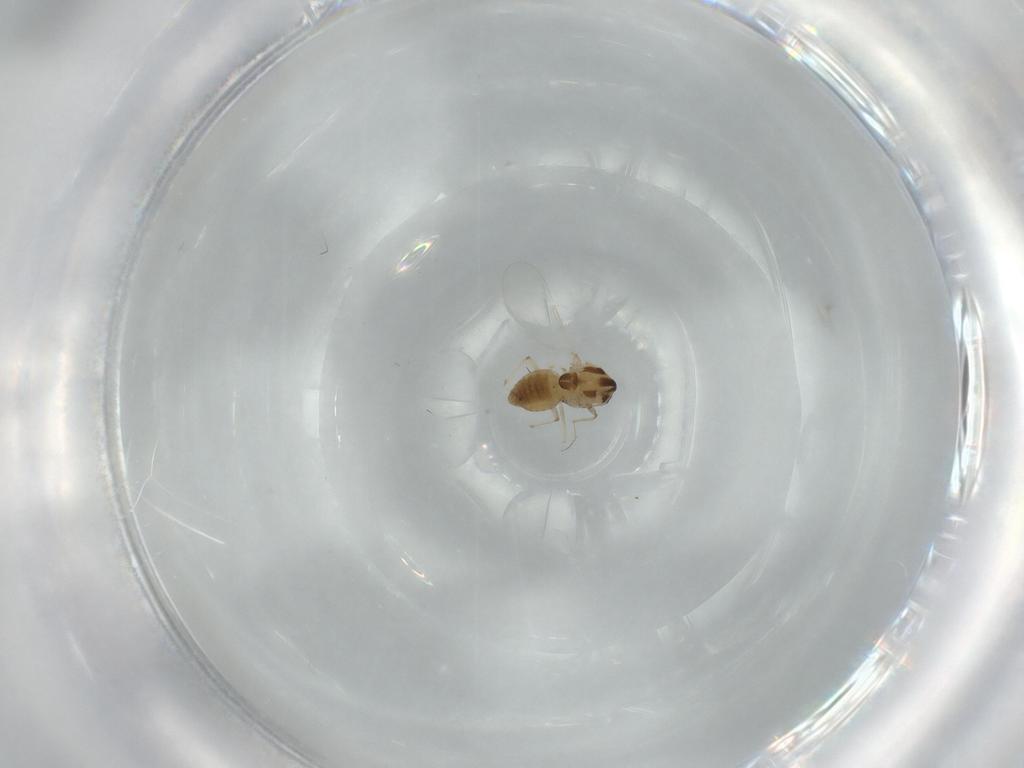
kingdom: Animalia
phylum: Arthropoda
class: Insecta
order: Diptera
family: Chironomidae
